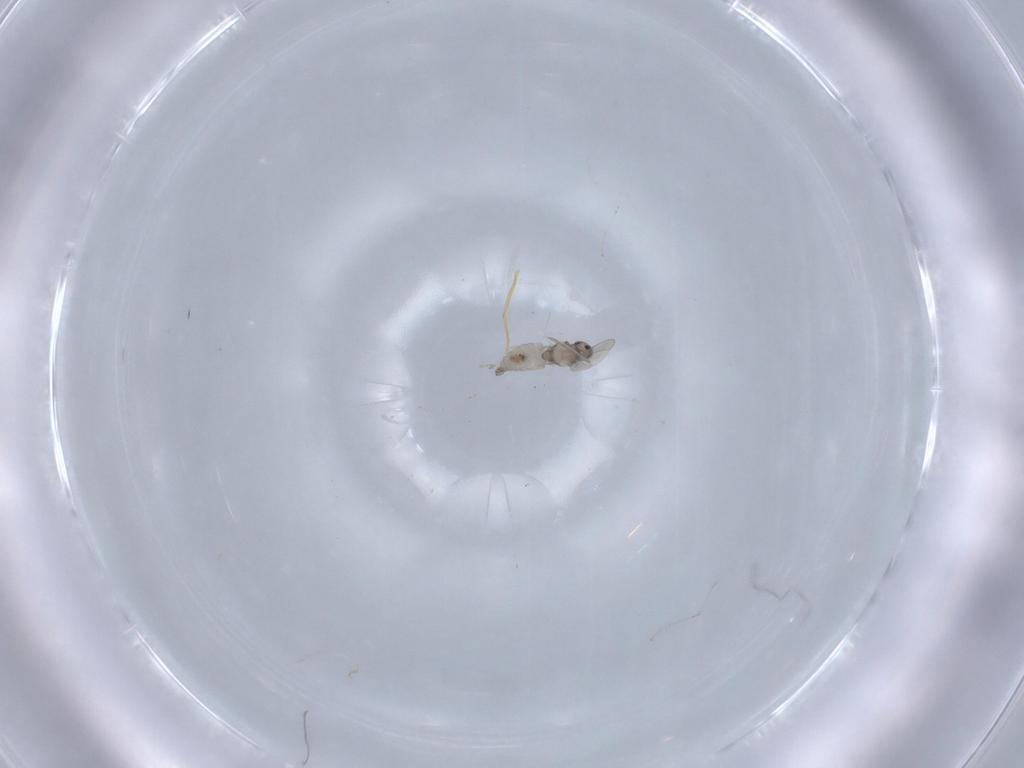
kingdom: Animalia
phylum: Arthropoda
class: Insecta
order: Diptera
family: Cecidomyiidae
